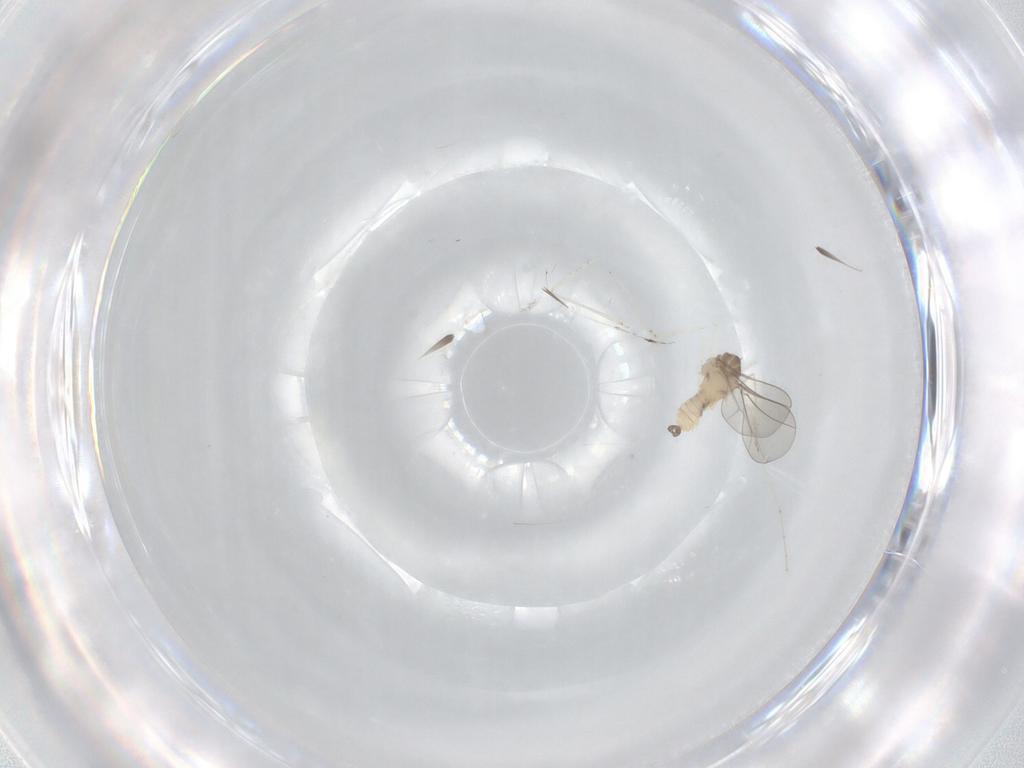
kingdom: Animalia
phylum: Arthropoda
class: Insecta
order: Diptera
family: Cecidomyiidae
